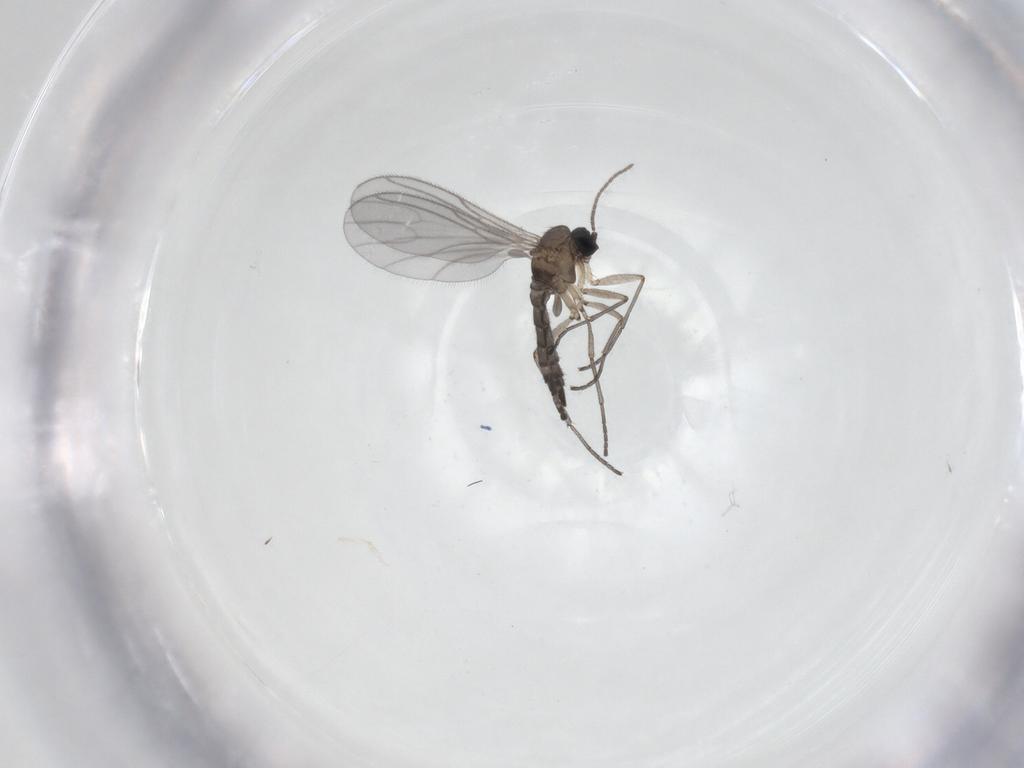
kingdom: Animalia
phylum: Arthropoda
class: Insecta
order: Diptera
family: Sciaridae
